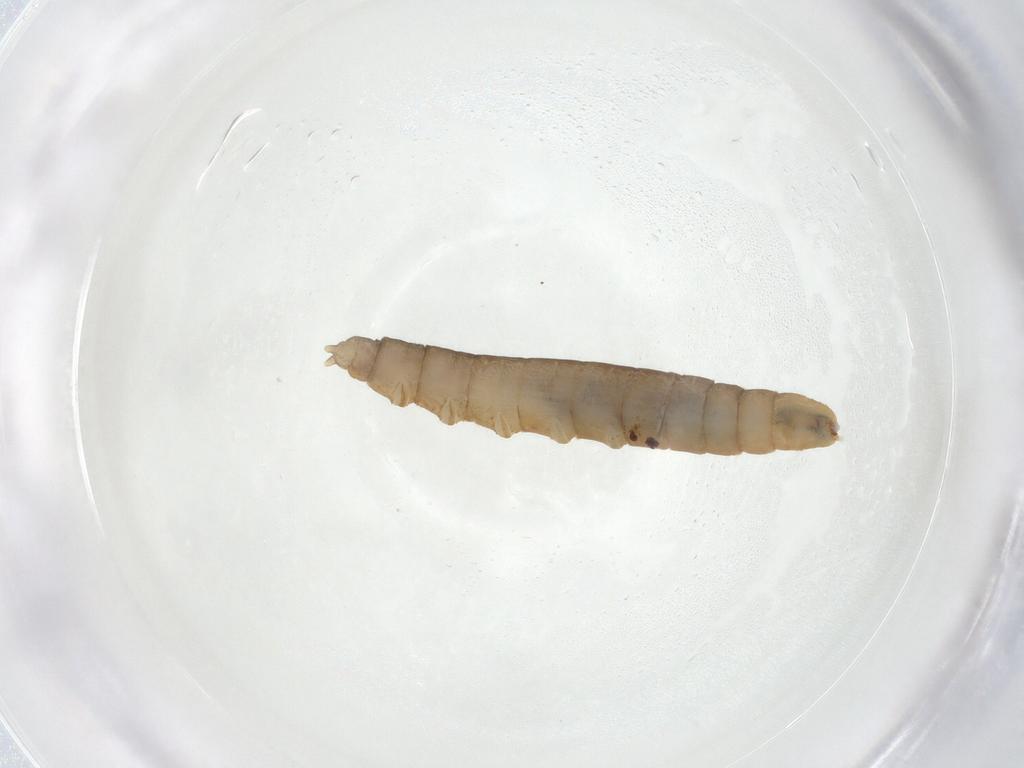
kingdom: Animalia
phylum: Arthropoda
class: Insecta
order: Diptera
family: Pediciidae
